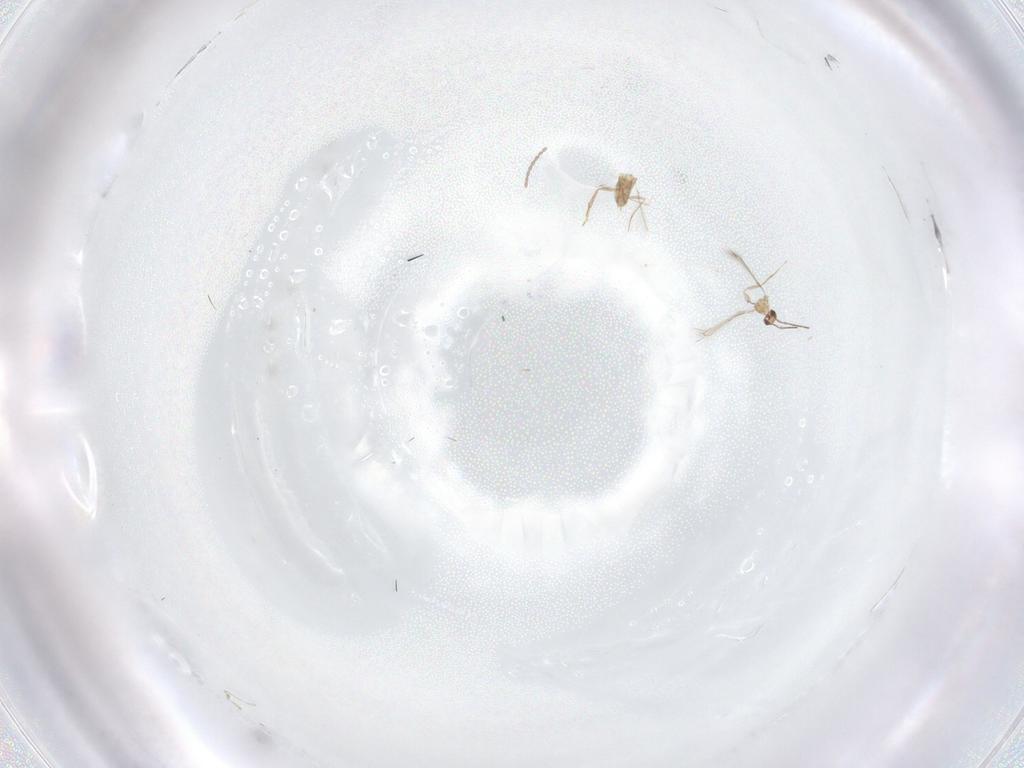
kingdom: Animalia
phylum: Arthropoda
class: Insecta
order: Diptera
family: Cecidomyiidae
